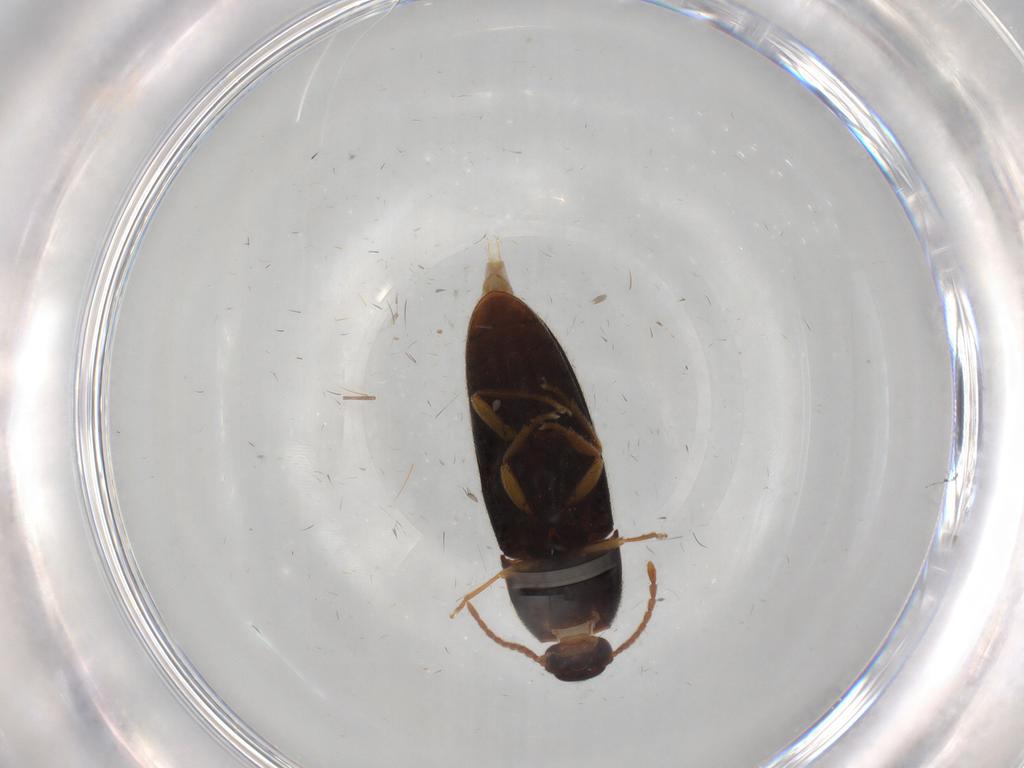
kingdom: Animalia
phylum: Arthropoda
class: Insecta
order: Coleoptera
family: Elateridae
